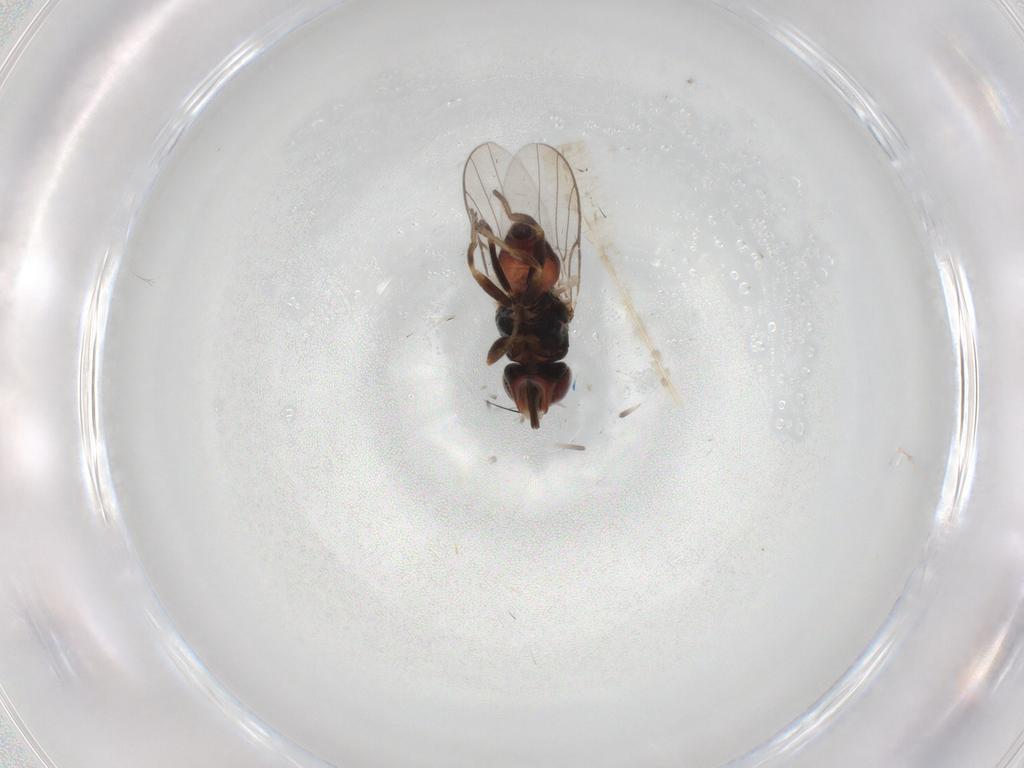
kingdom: Animalia
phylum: Arthropoda
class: Insecta
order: Diptera
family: Chloropidae
